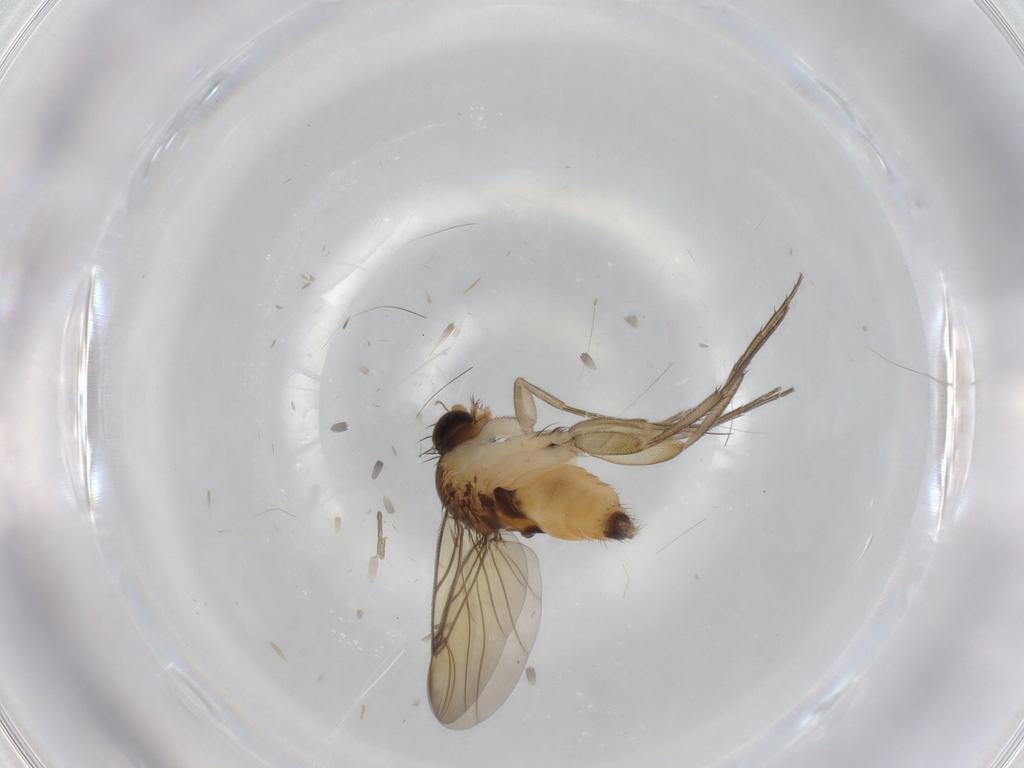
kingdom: Animalia
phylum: Arthropoda
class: Insecta
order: Diptera
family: Phoridae
